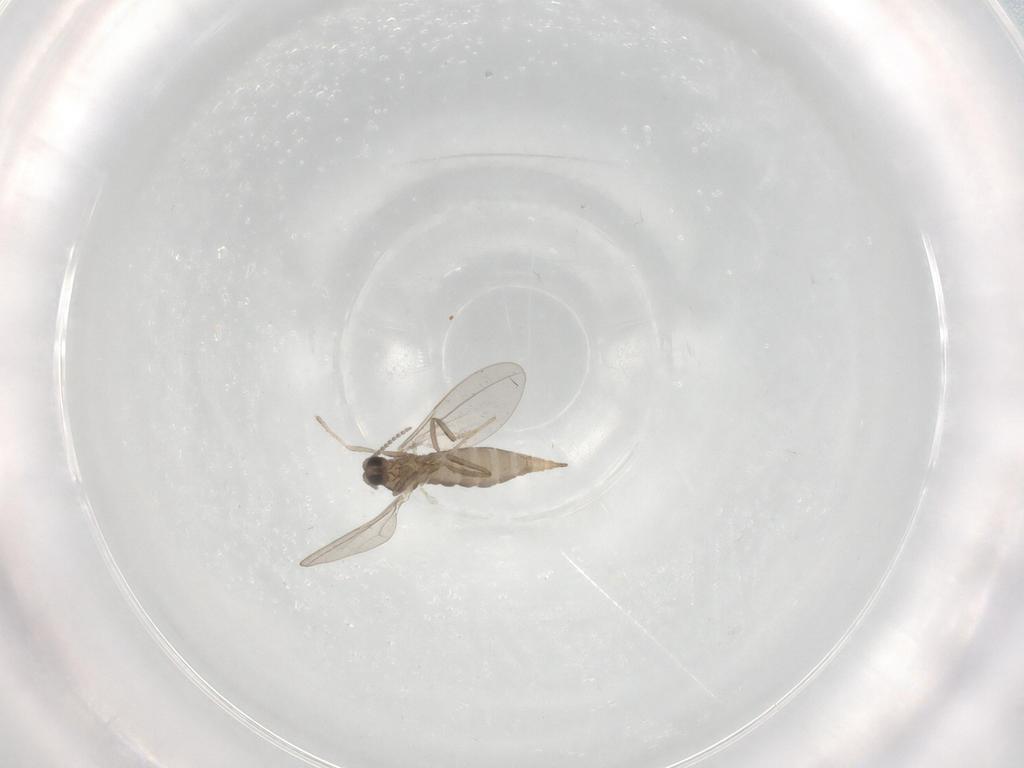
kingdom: Animalia
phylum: Arthropoda
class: Insecta
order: Diptera
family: Cecidomyiidae
